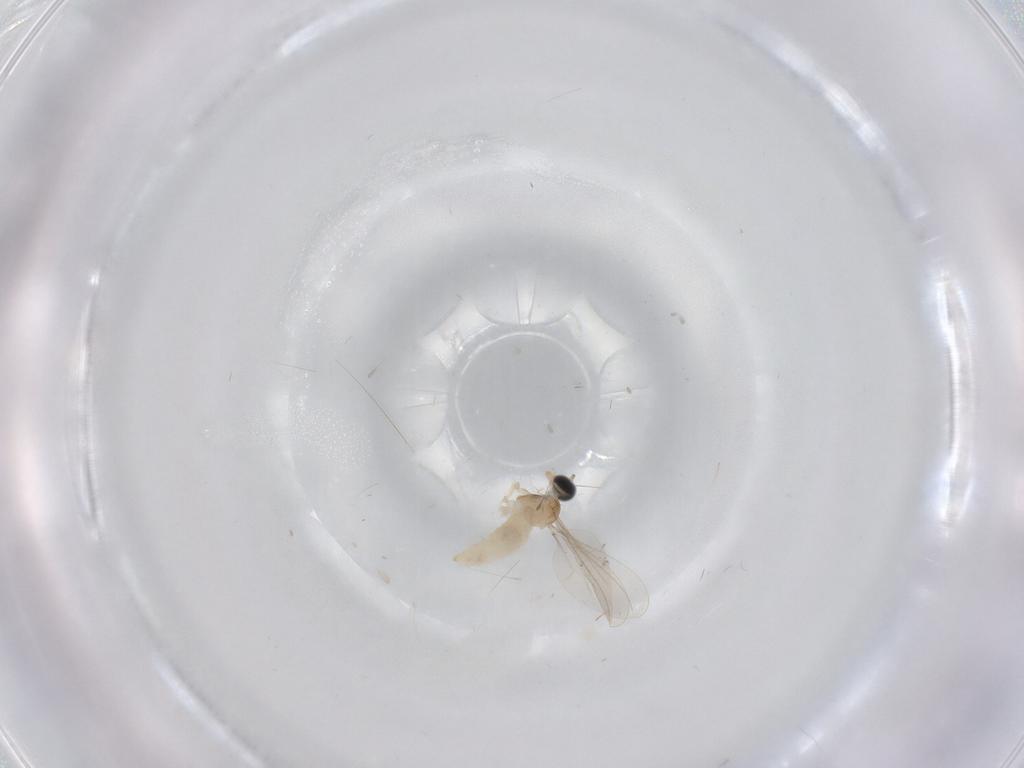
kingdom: Animalia
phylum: Arthropoda
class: Insecta
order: Diptera
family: Cecidomyiidae
